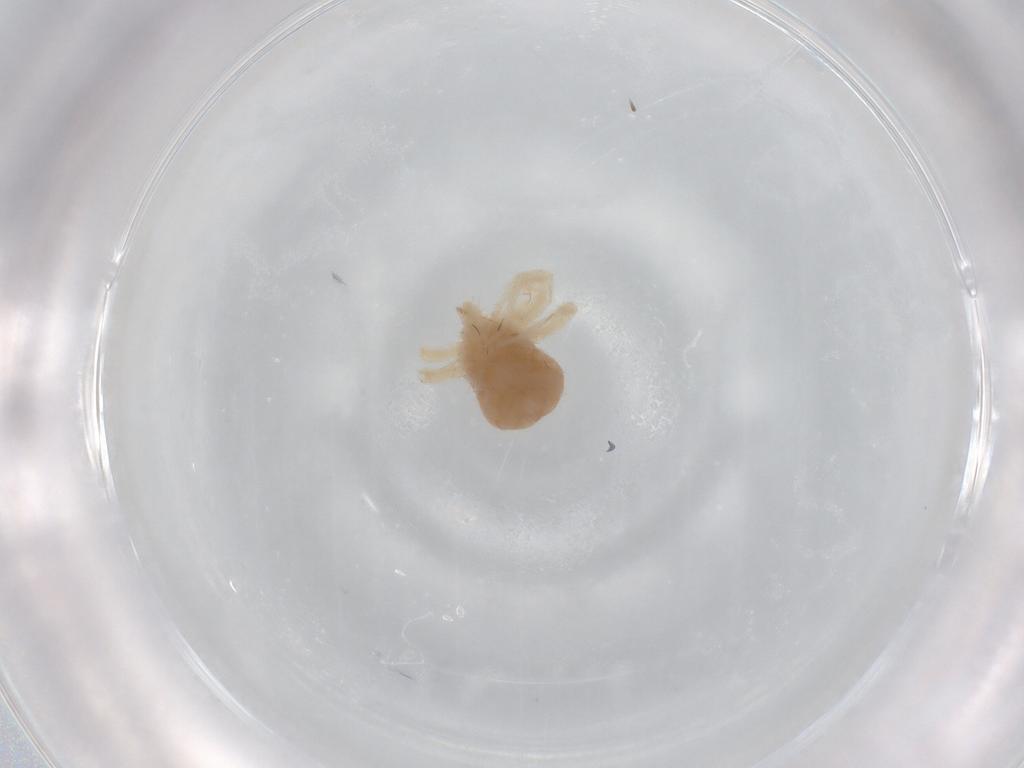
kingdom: Animalia
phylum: Arthropoda
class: Arachnida
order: Trombidiformes
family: Anystidae
